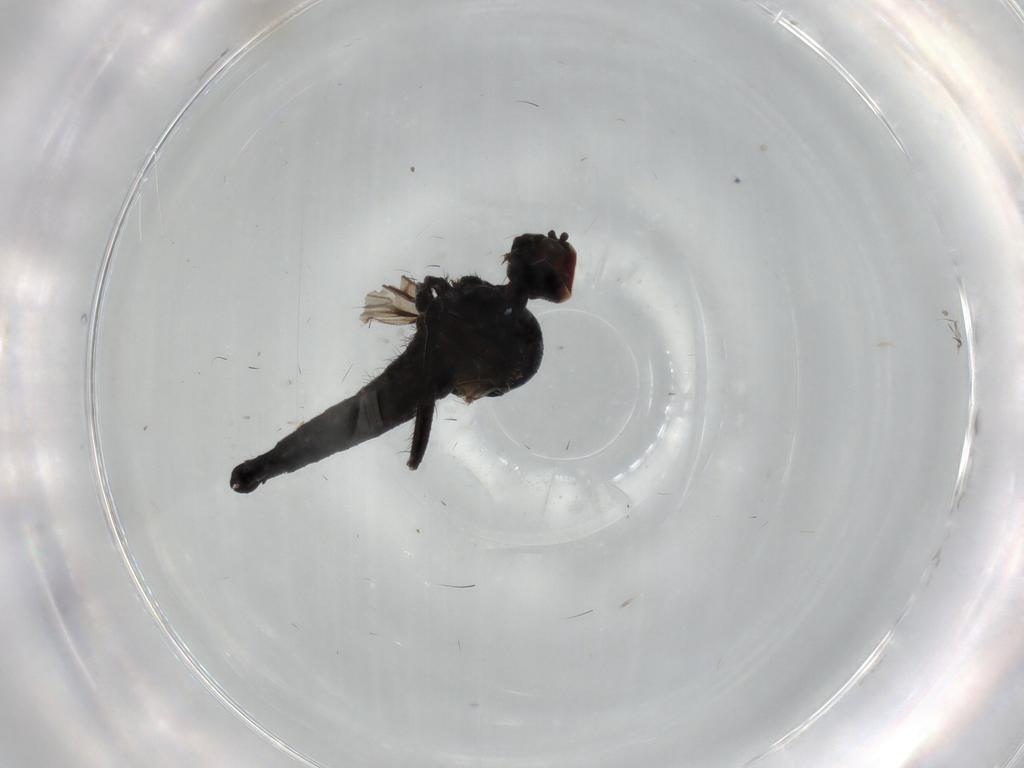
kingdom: Animalia
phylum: Arthropoda
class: Insecta
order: Diptera
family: Hybotidae
